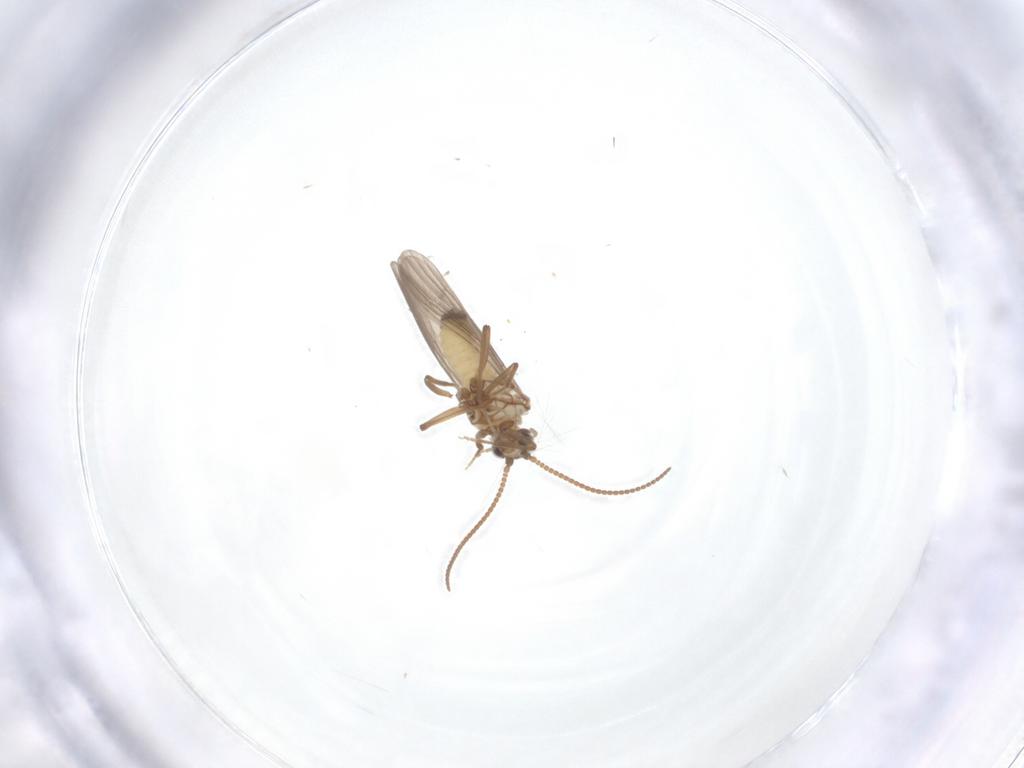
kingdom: Animalia
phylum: Arthropoda
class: Insecta
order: Neuroptera
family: Coniopterygidae
